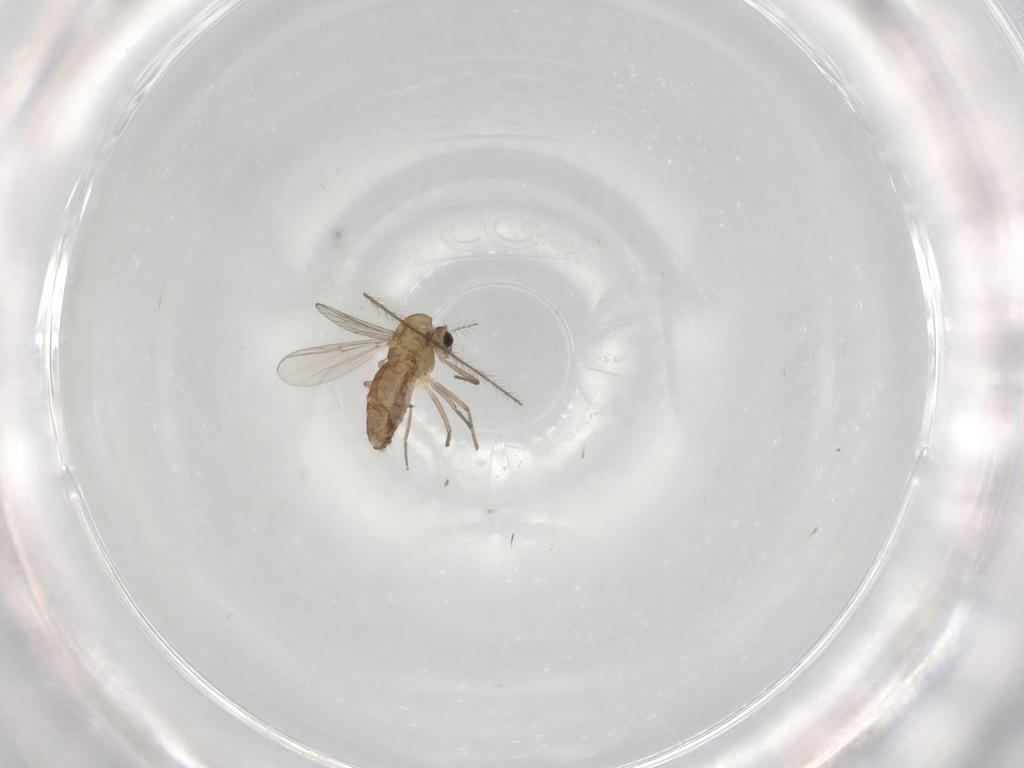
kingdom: Animalia
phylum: Arthropoda
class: Insecta
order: Diptera
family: Chironomidae
